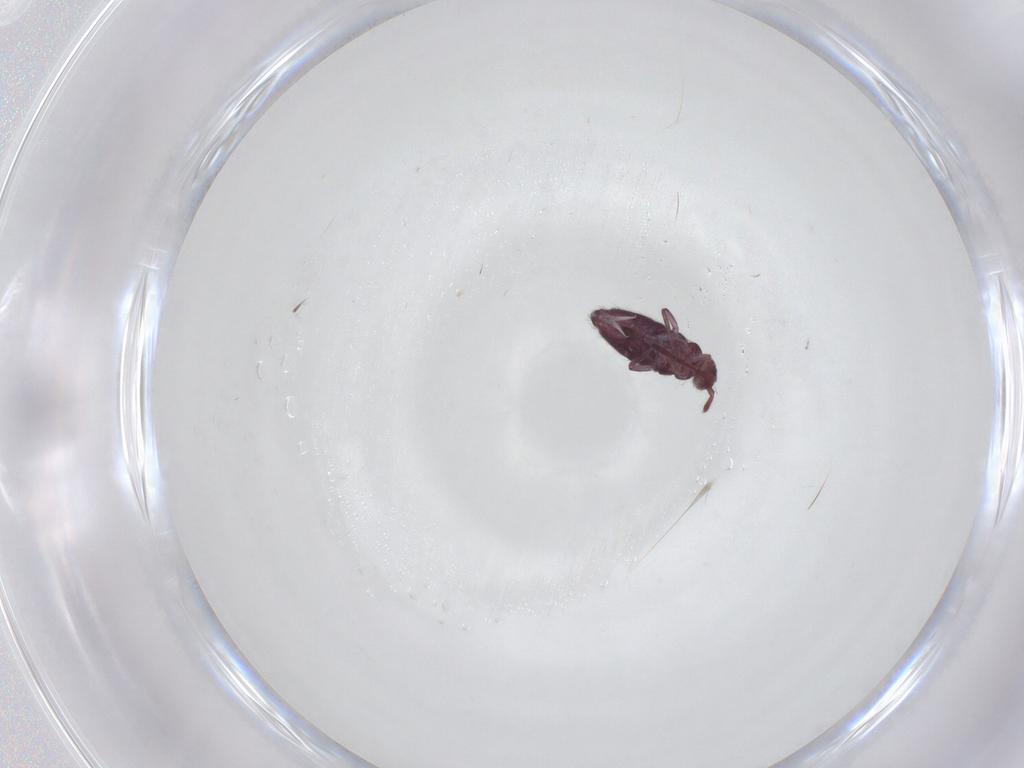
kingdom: Animalia
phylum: Arthropoda
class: Collembola
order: Entomobryomorpha
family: Entomobryidae
